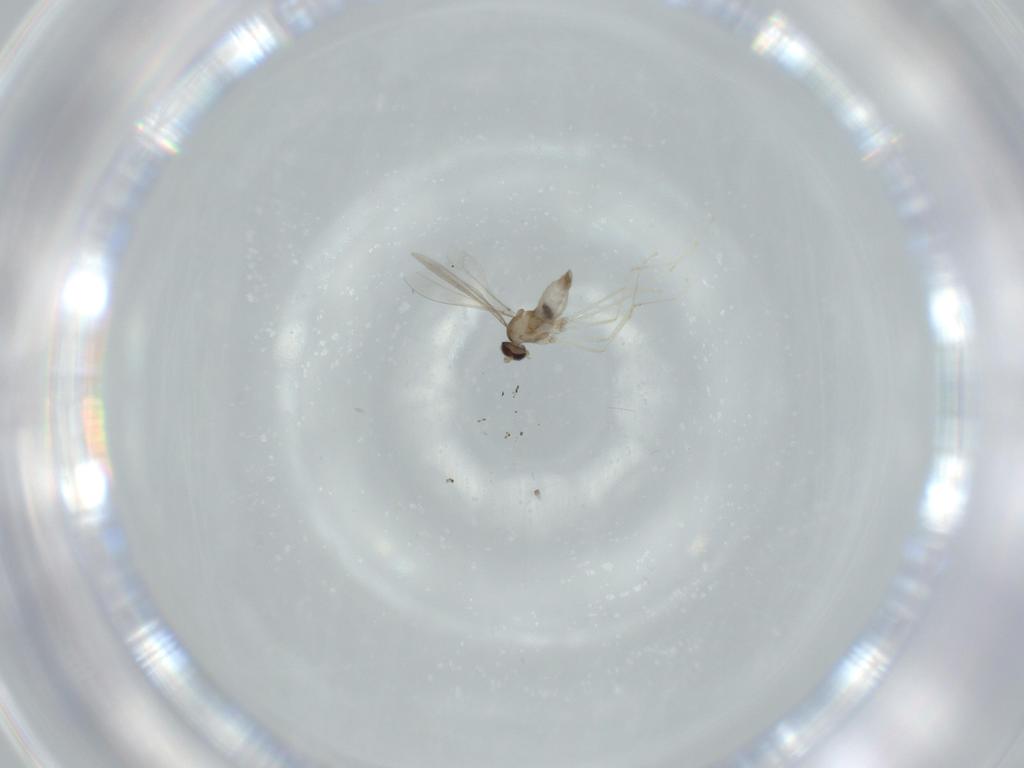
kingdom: Animalia
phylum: Arthropoda
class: Insecta
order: Diptera
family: Cecidomyiidae
